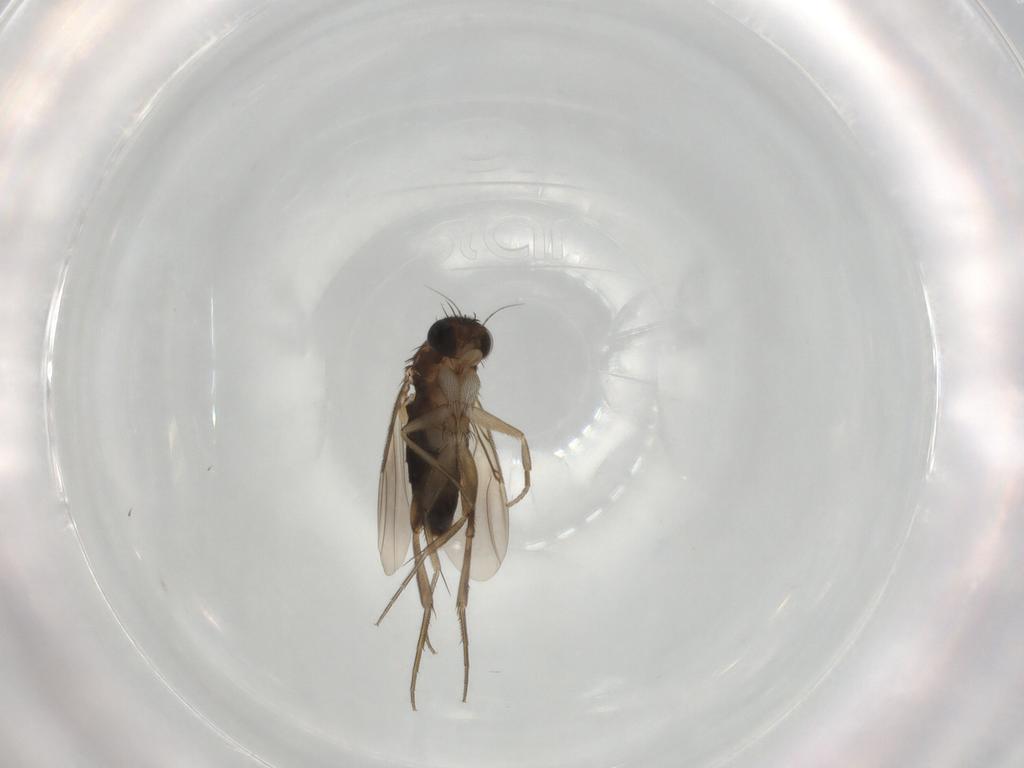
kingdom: Animalia
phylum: Arthropoda
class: Insecta
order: Diptera
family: Phoridae
